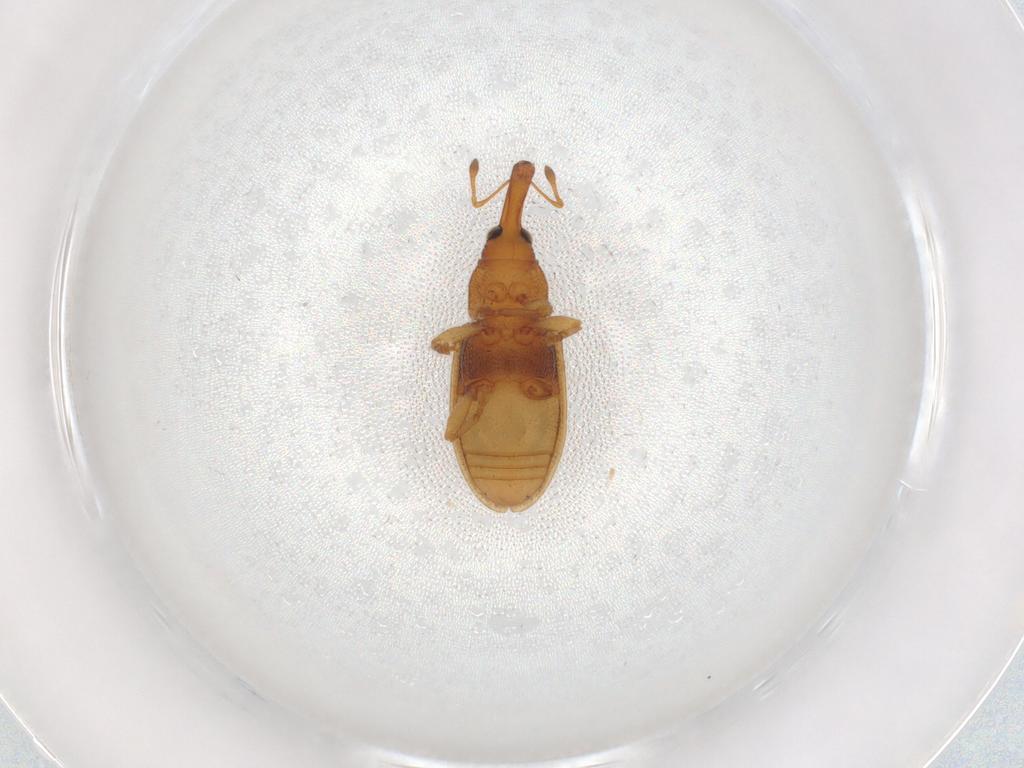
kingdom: Animalia
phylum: Arthropoda
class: Insecta
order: Coleoptera
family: Curculionidae
